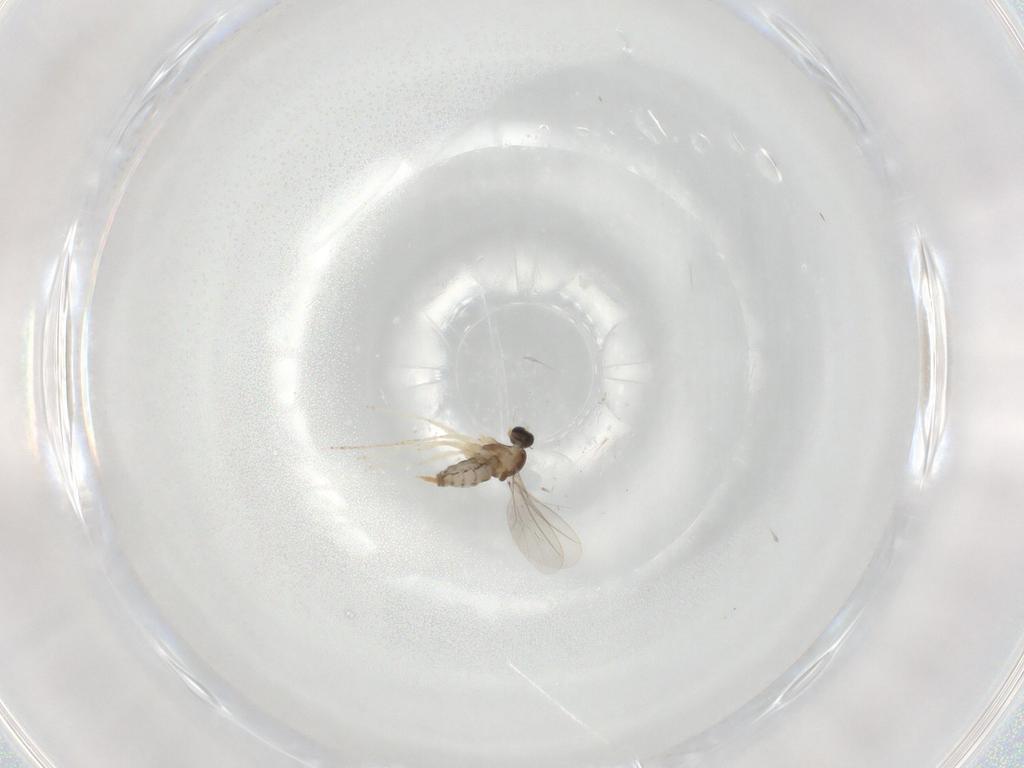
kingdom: Animalia
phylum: Arthropoda
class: Insecta
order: Diptera
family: Cecidomyiidae
